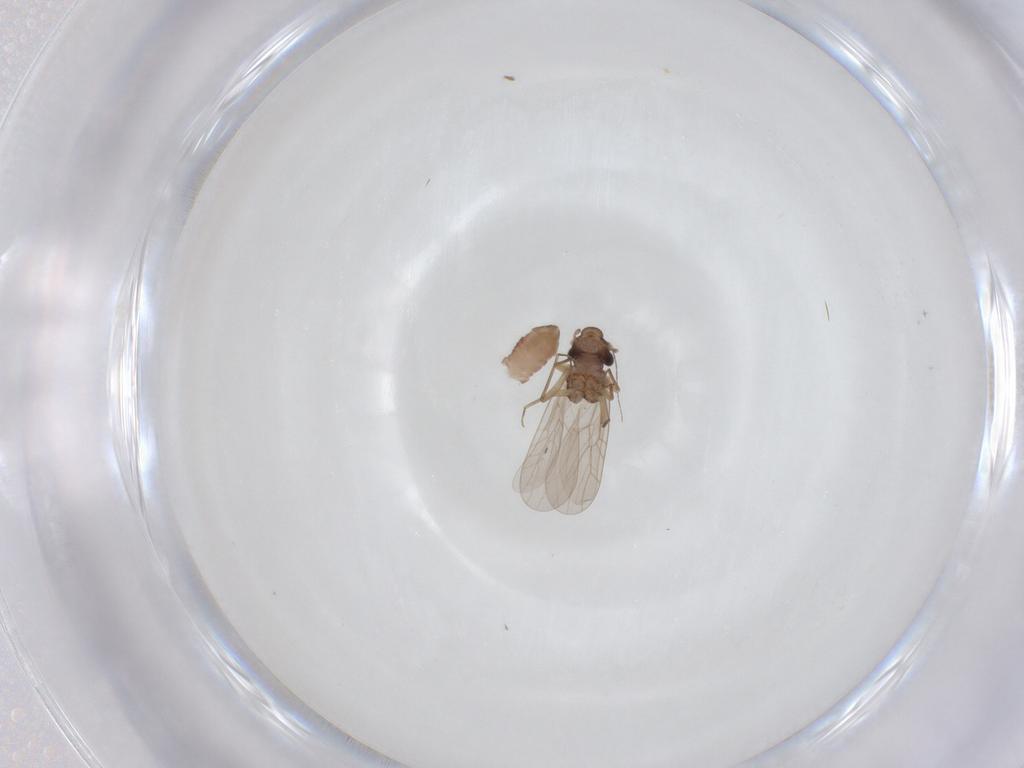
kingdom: Animalia
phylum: Arthropoda
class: Insecta
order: Psocodea
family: Lepidopsocidae
